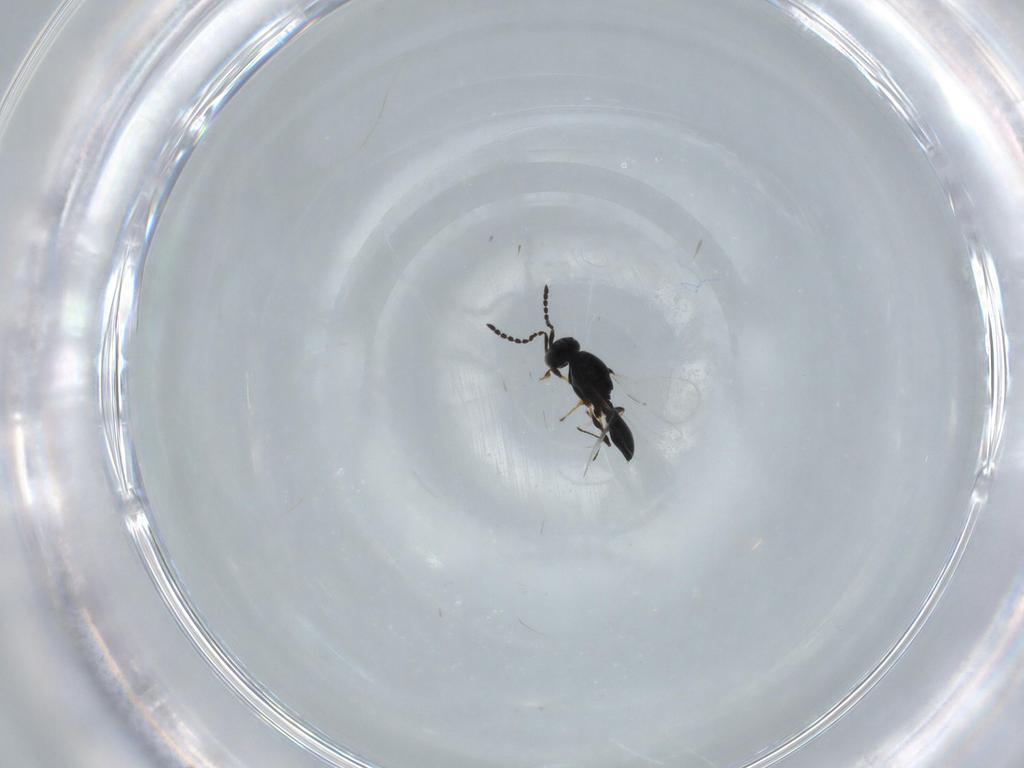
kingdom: Animalia
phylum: Arthropoda
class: Insecta
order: Hymenoptera
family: Platygastridae
